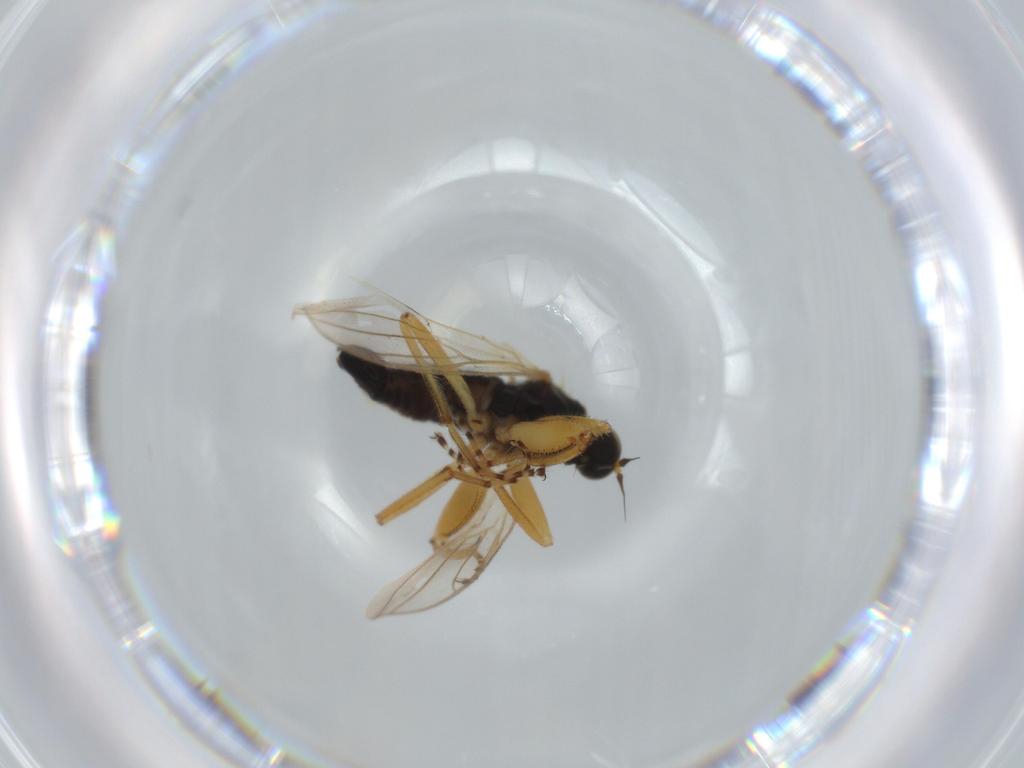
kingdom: Animalia
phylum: Arthropoda
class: Insecta
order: Diptera
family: Hybotidae
